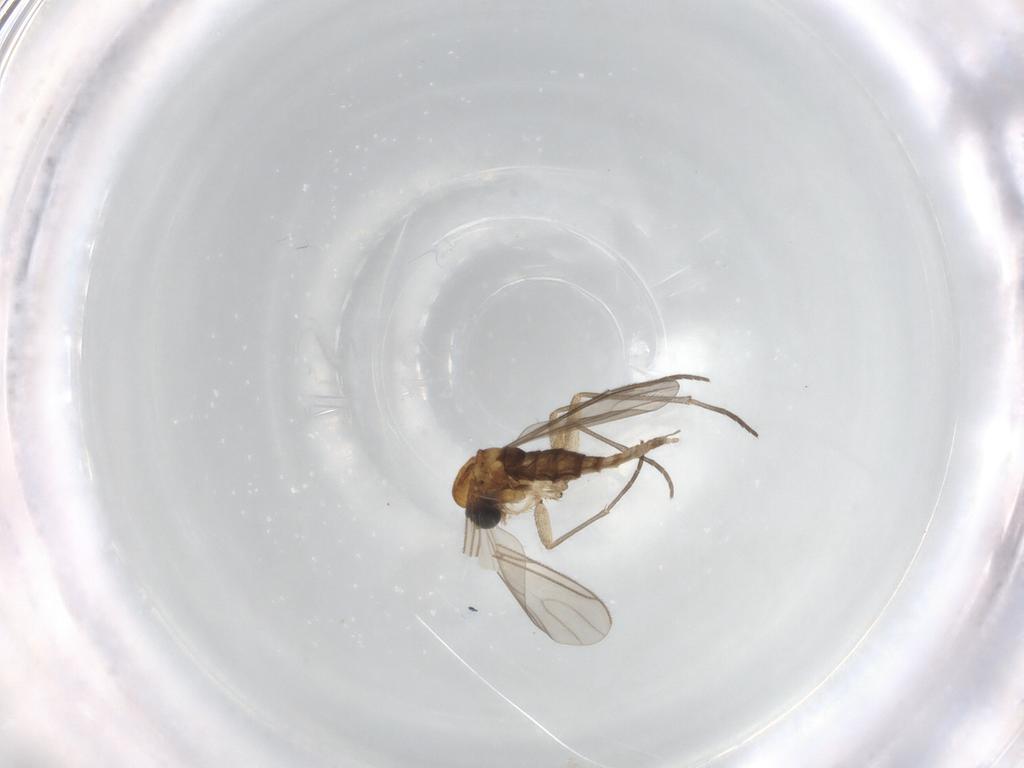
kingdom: Animalia
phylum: Arthropoda
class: Insecta
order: Diptera
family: Sciaridae
